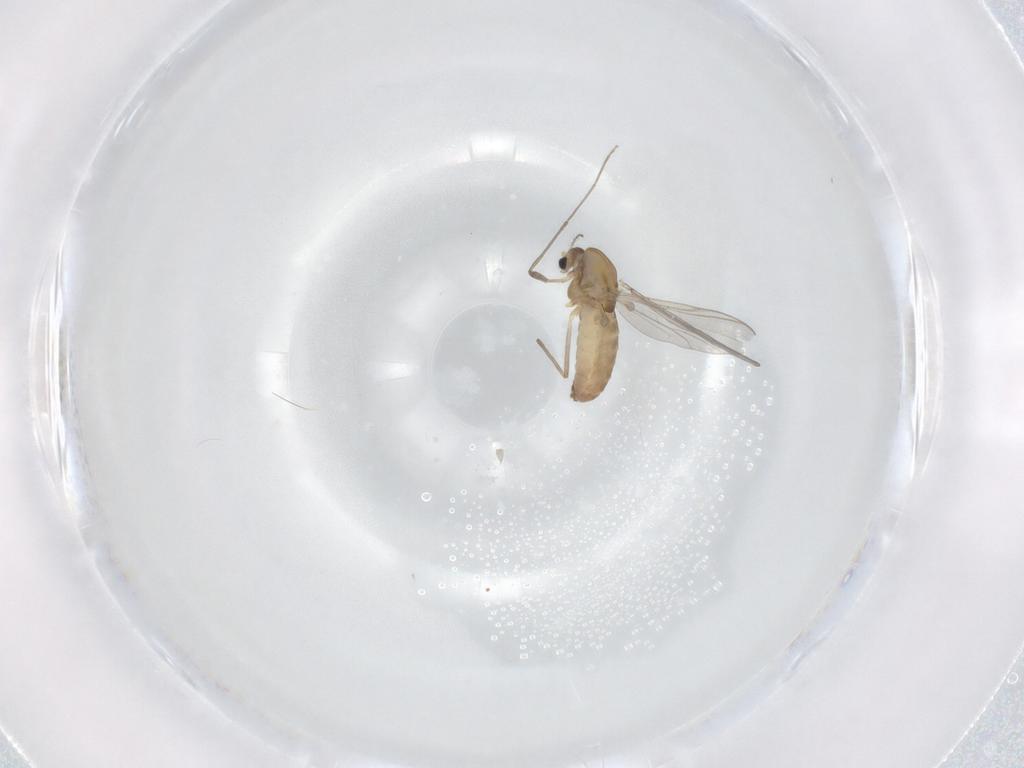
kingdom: Animalia
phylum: Arthropoda
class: Insecta
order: Diptera
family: Chironomidae
